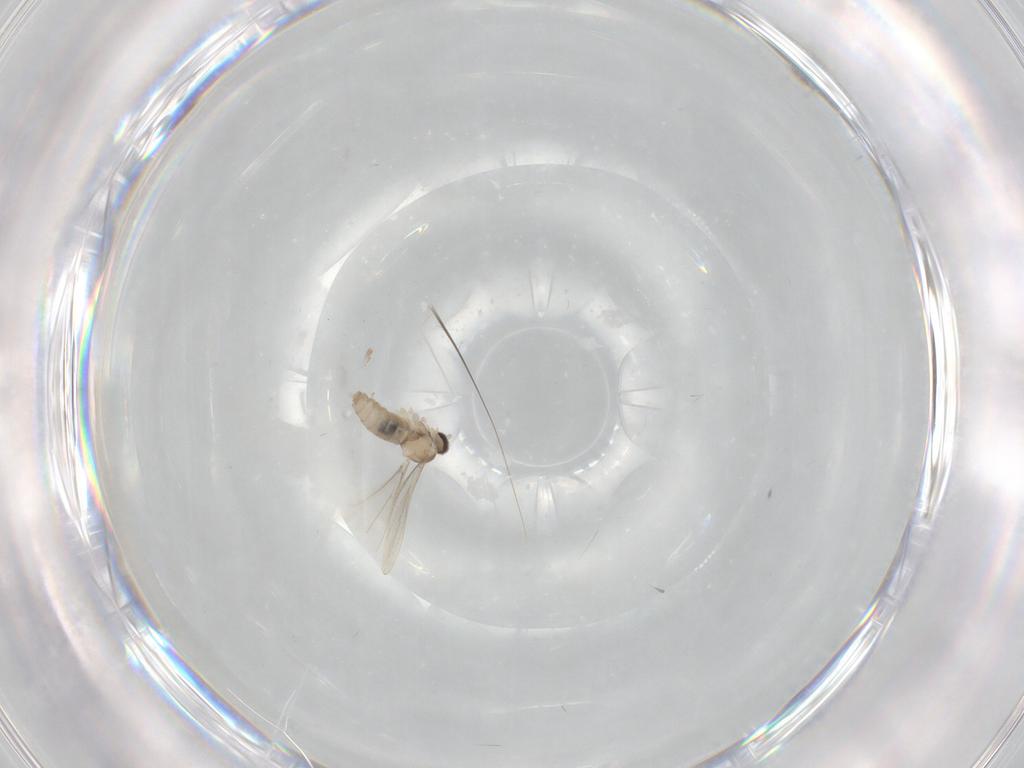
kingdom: Animalia
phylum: Arthropoda
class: Insecta
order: Diptera
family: Cecidomyiidae
